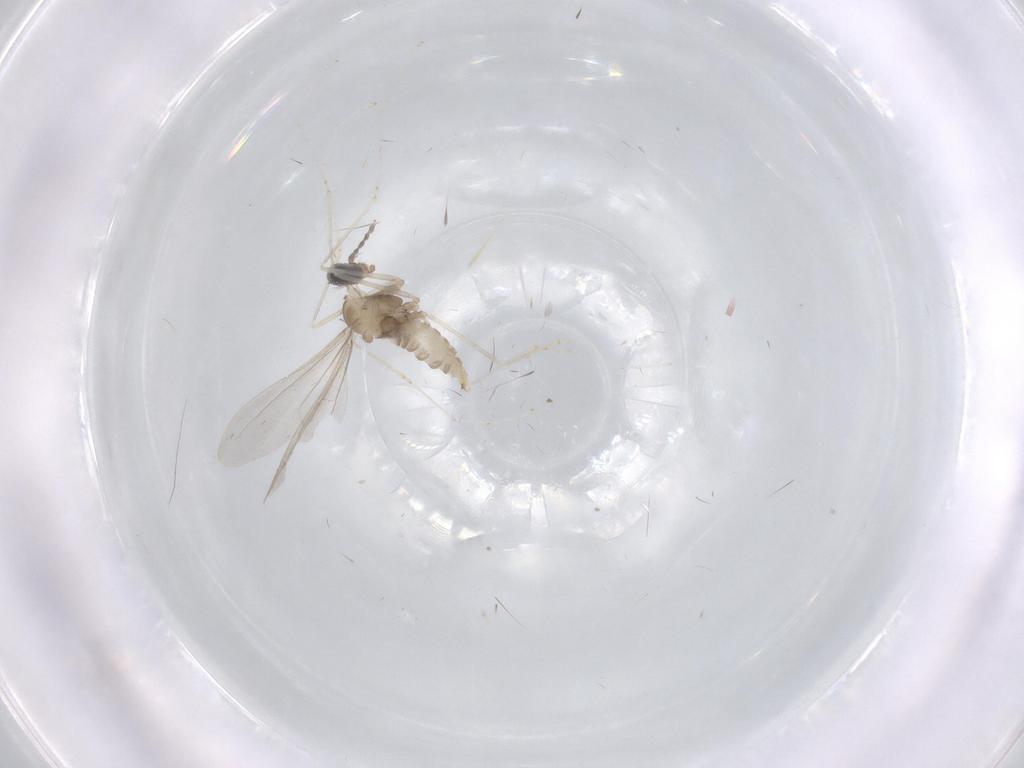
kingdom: Animalia
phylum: Arthropoda
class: Insecta
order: Diptera
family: Cecidomyiidae
